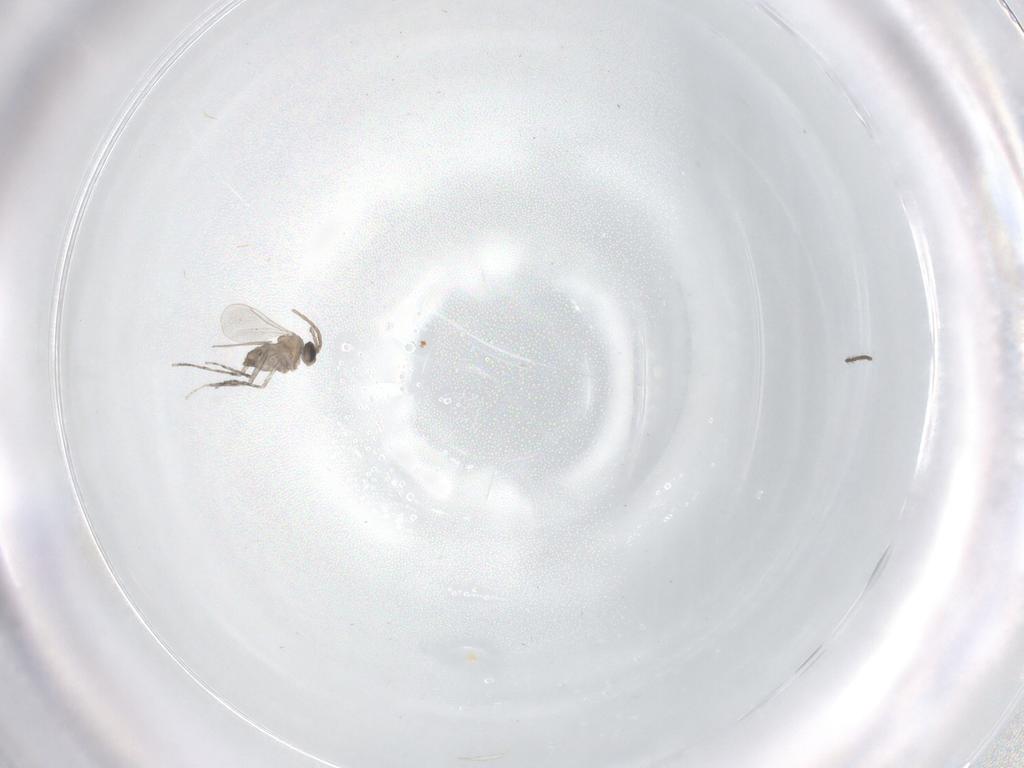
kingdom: Animalia
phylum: Arthropoda
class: Insecta
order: Diptera
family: Cecidomyiidae
